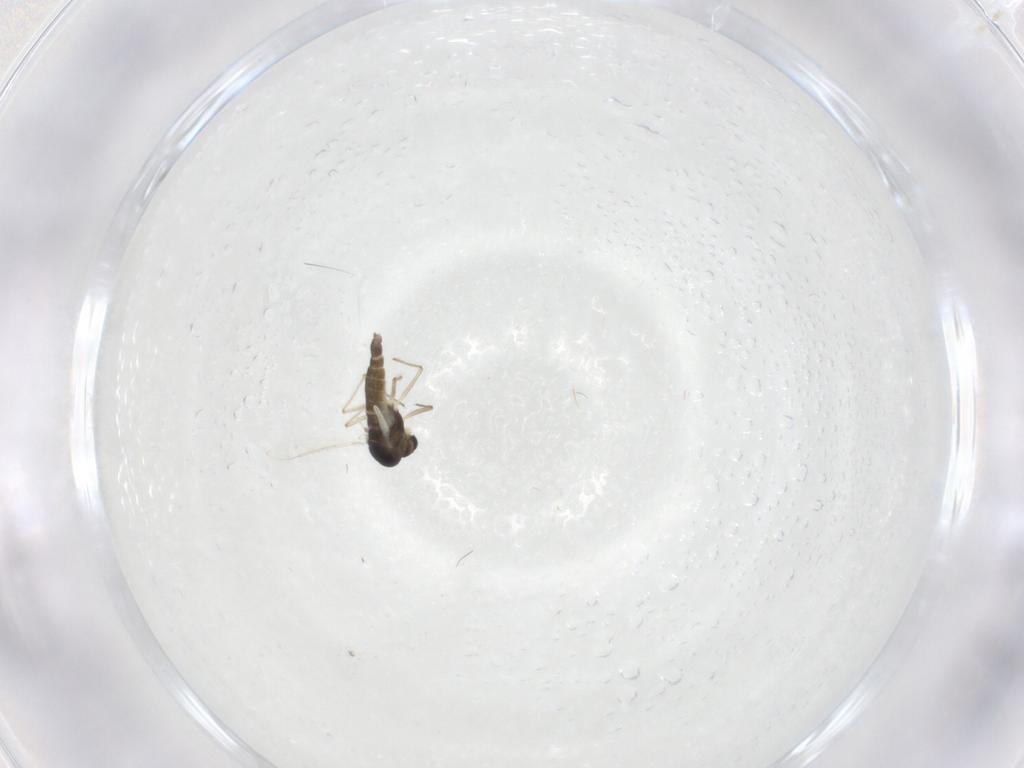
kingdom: Animalia
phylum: Arthropoda
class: Insecta
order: Diptera
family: Chironomidae
